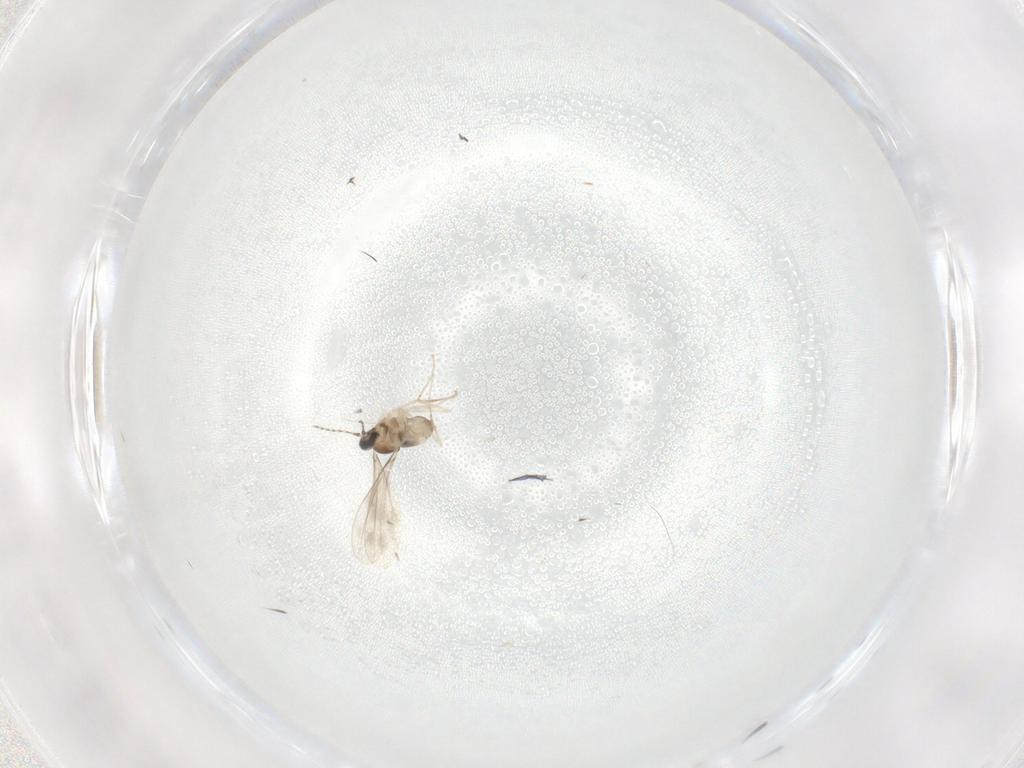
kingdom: Animalia
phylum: Arthropoda
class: Insecta
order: Diptera
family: Cecidomyiidae
